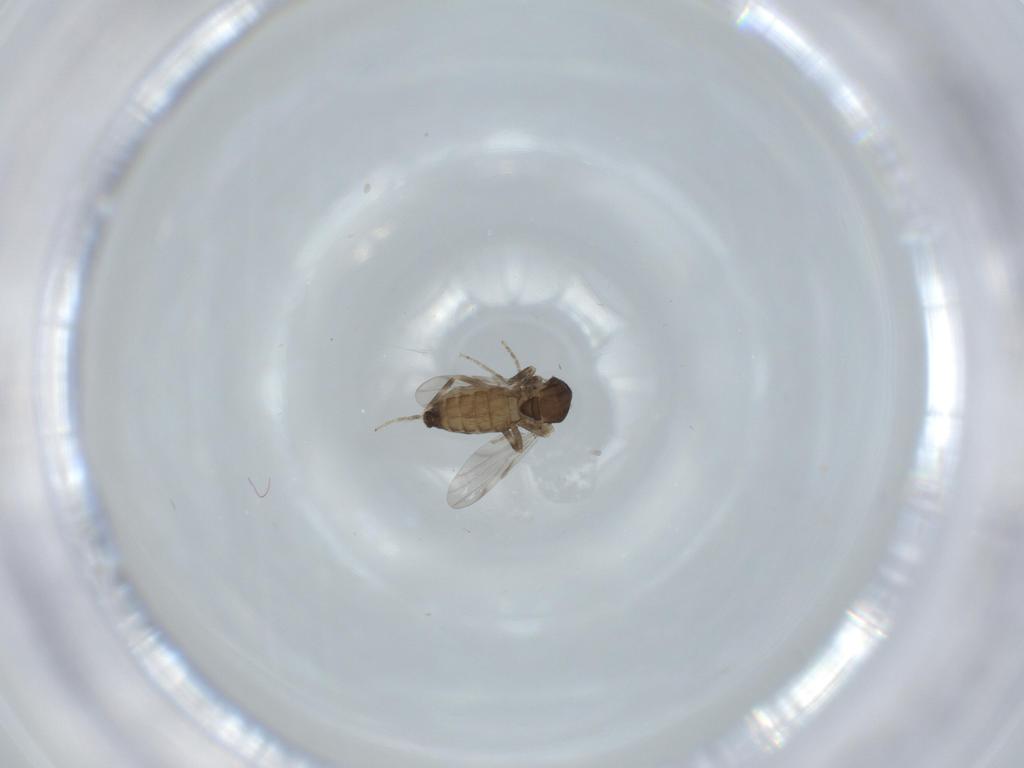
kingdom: Animalia
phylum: Arthropoda
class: Insecta
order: Diptera
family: Ceratopogonidae
